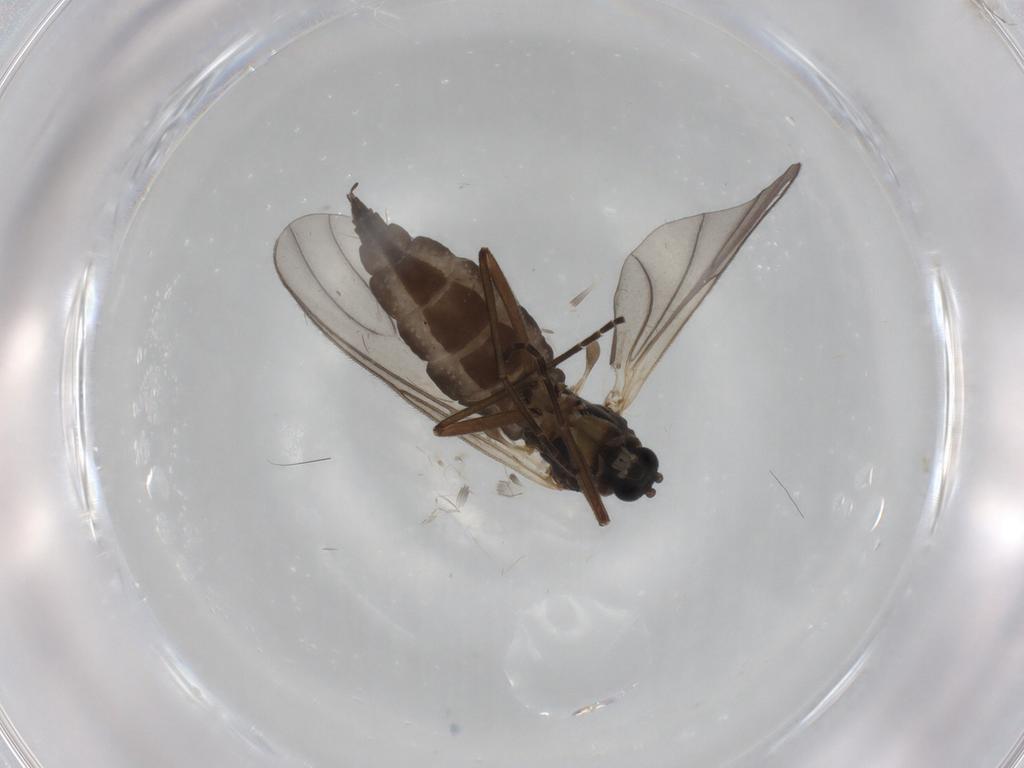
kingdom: Animalia
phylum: Arthropoda
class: Insecta
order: Diptera
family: Sciaridae
